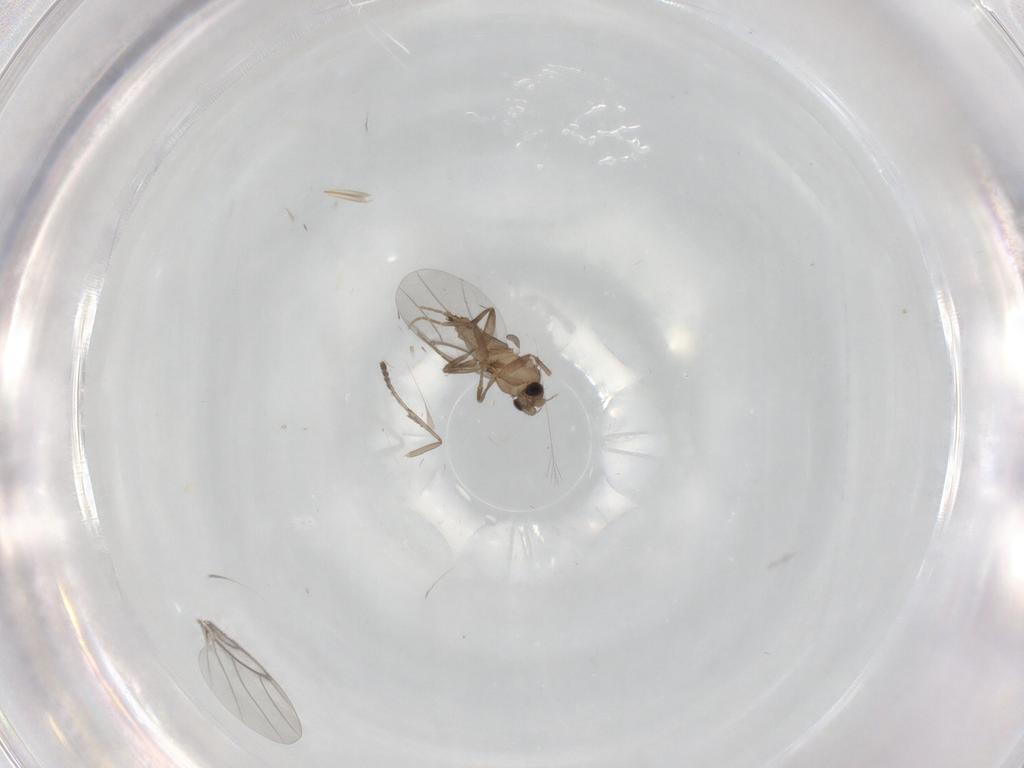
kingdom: Animalia
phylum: Arthropoda
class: Insecta
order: Diptera
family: Psychodidae
